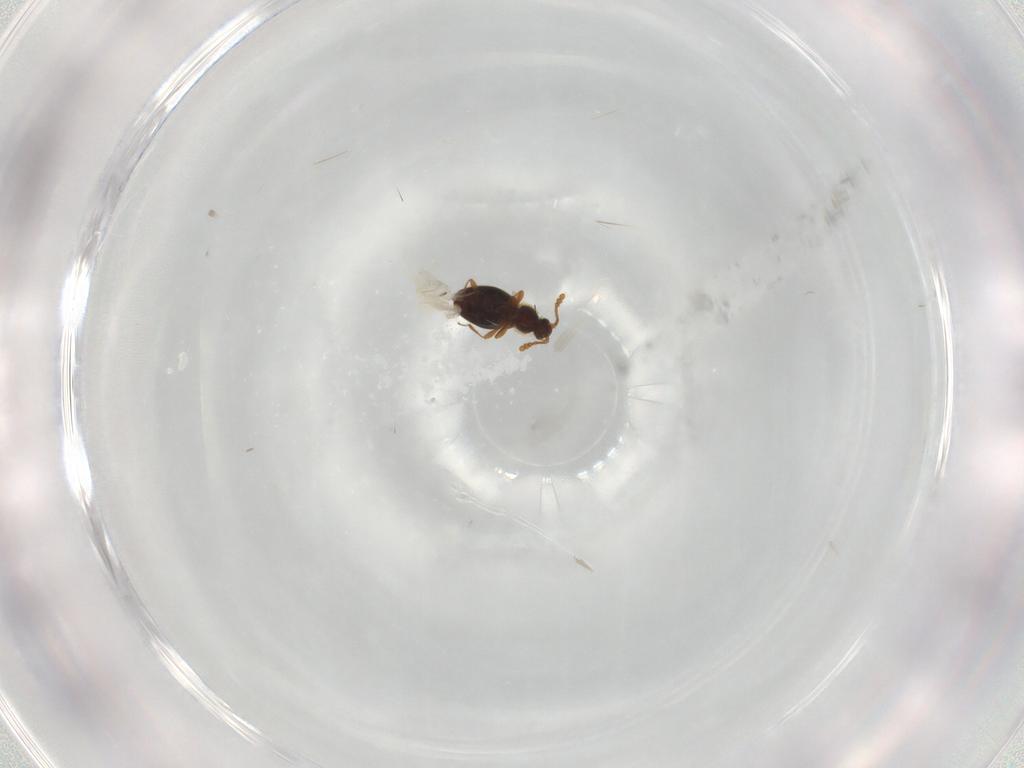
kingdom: Animalia
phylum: Arthropoda
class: Insecta
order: Coleoptera
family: Staphylinidae
